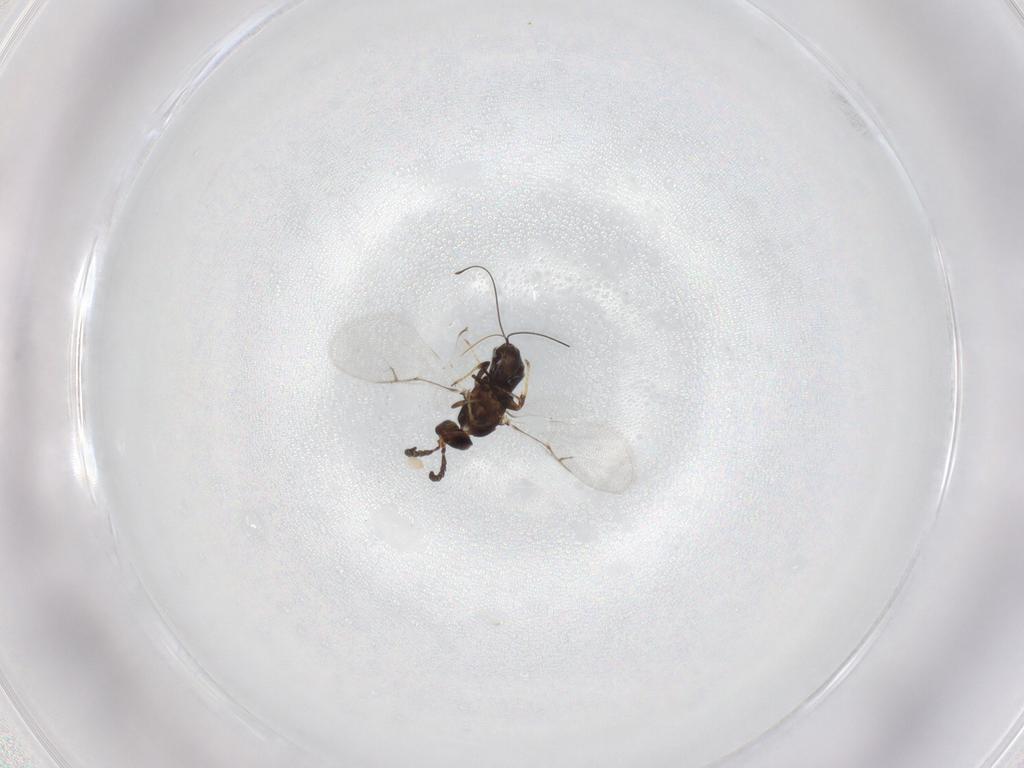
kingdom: Animalia
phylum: Arthropoda
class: Insecta
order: Hymenoptera
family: Agaonidae
